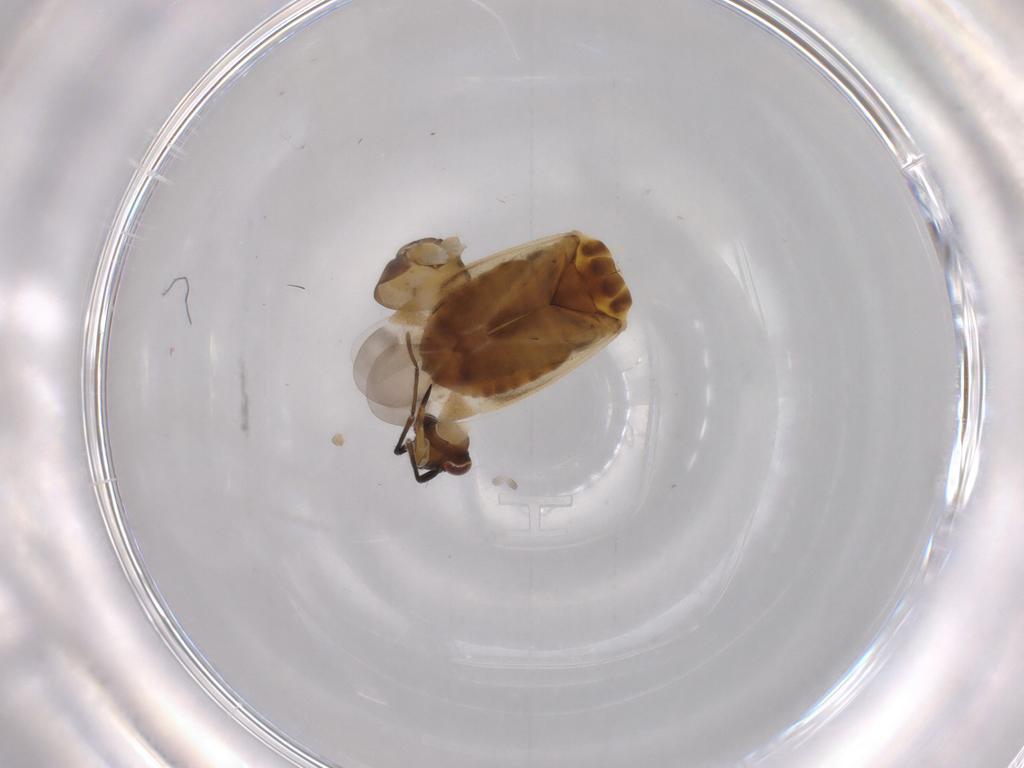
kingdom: Animalia
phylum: Arthropoda
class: Insecta
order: Hemiptera
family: Miridae
